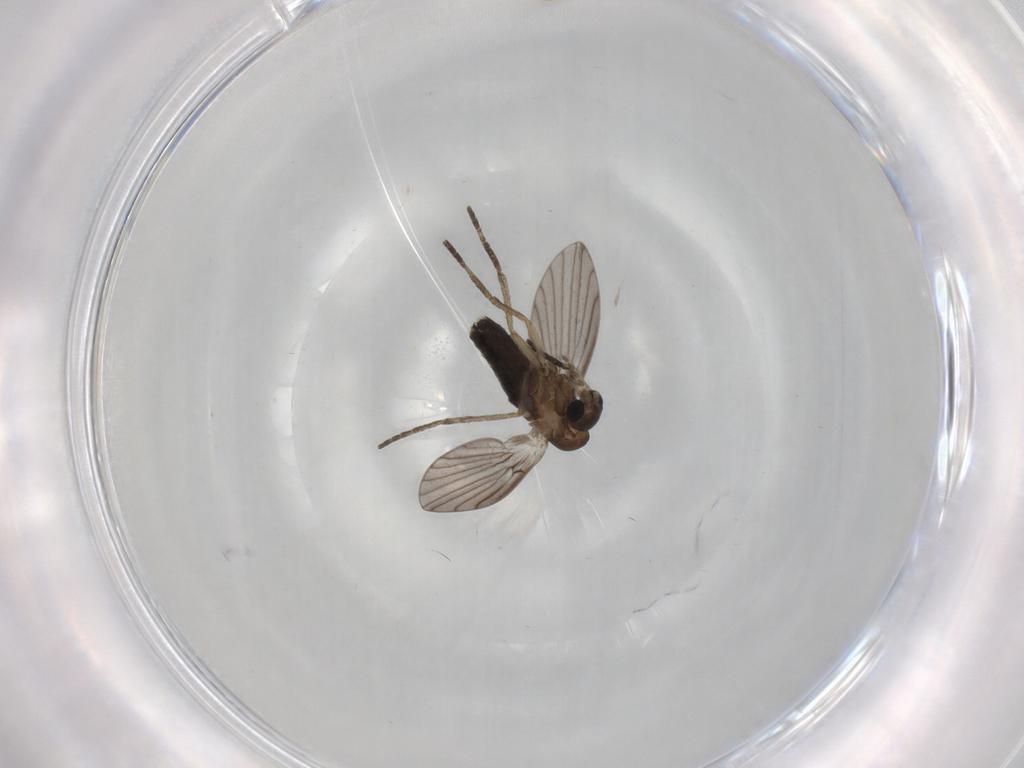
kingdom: Animalia
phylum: Arthropoda
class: Insecta
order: Diptera
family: Psychodidae
